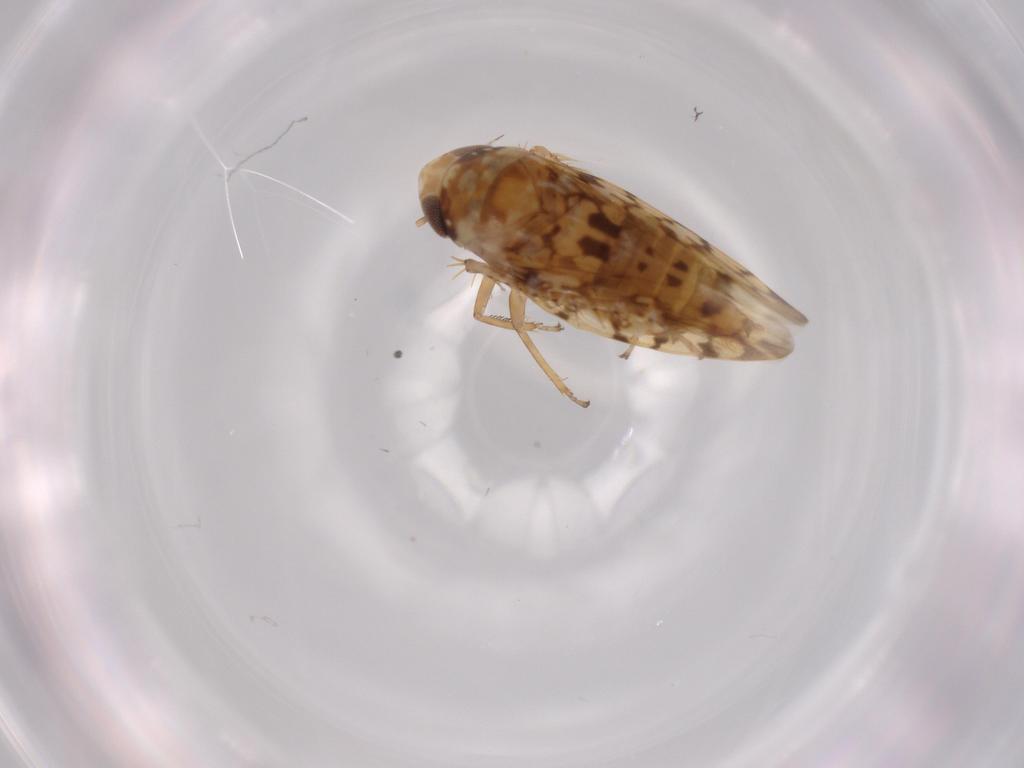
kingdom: Animalia
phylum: Arthropoda
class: Insecta
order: Hemiptera
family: Cicadellidae
